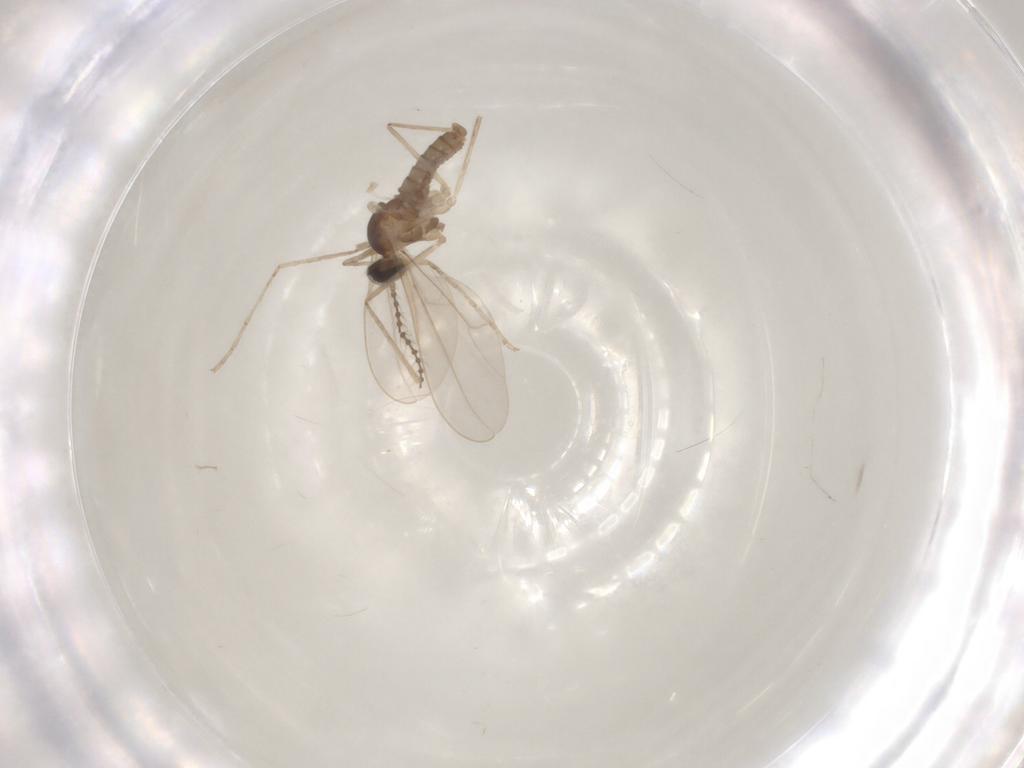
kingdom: Animalia
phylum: Arthropoda
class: Insecta
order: Diptera
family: Cecidomyiidae
